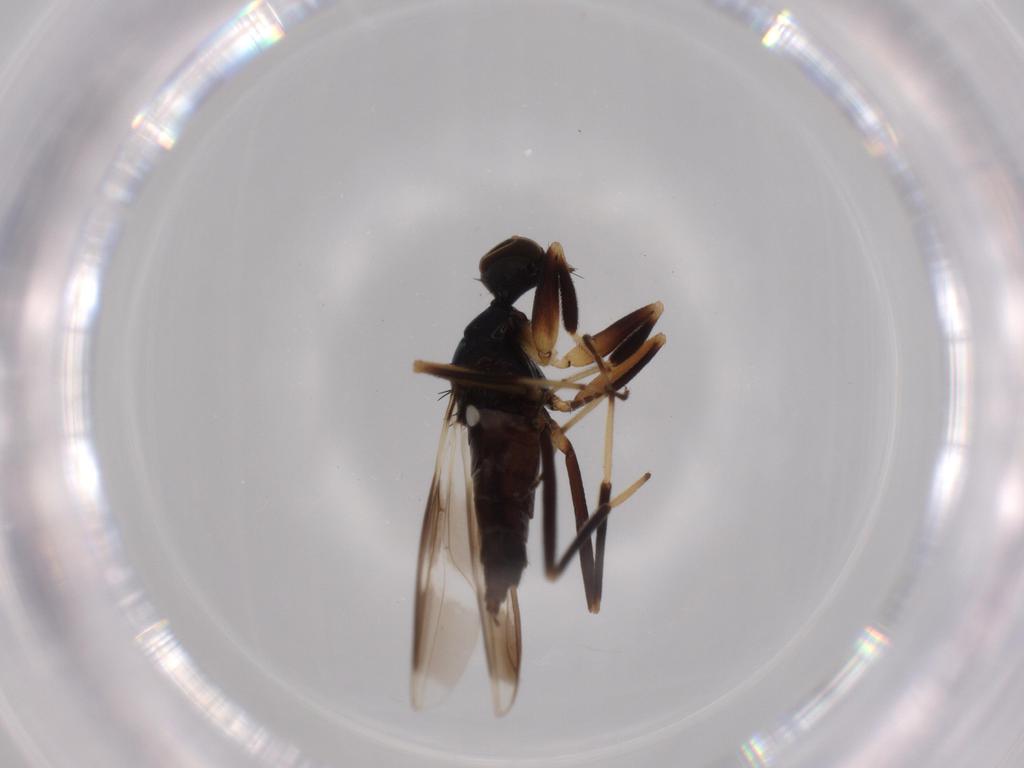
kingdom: Animalia
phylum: Arthropoda
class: Insecta
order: Diptera
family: Hybotidae
